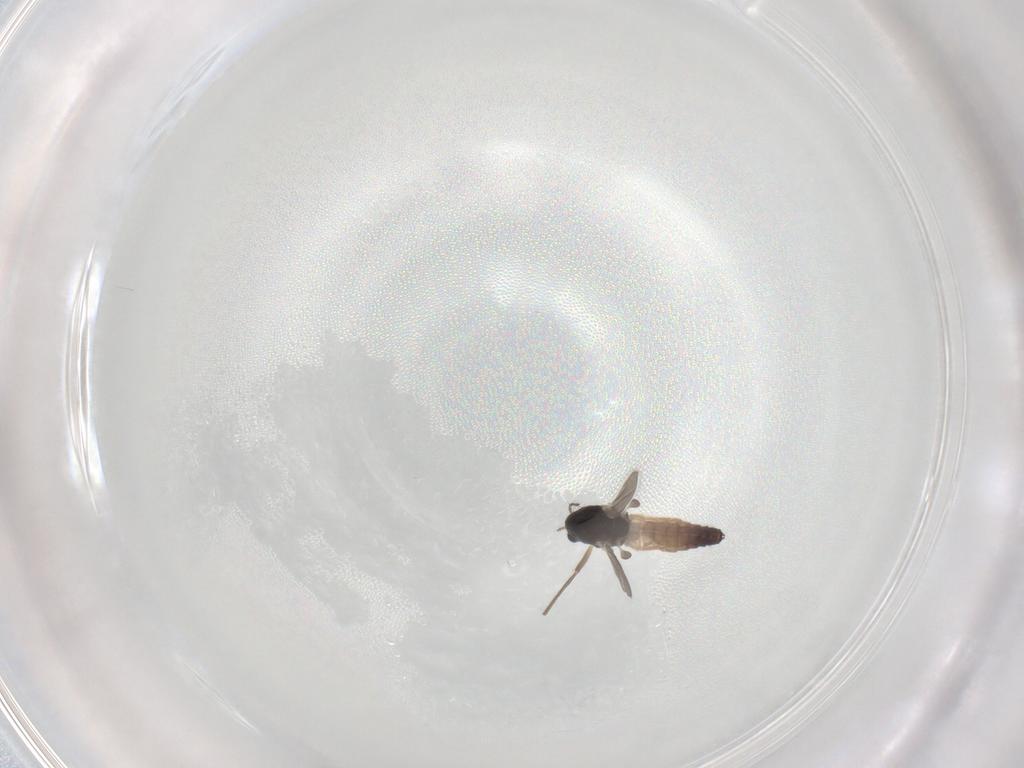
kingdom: Animalia
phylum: Arthropoda
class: Insecta
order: Diptera
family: Chironomidae
